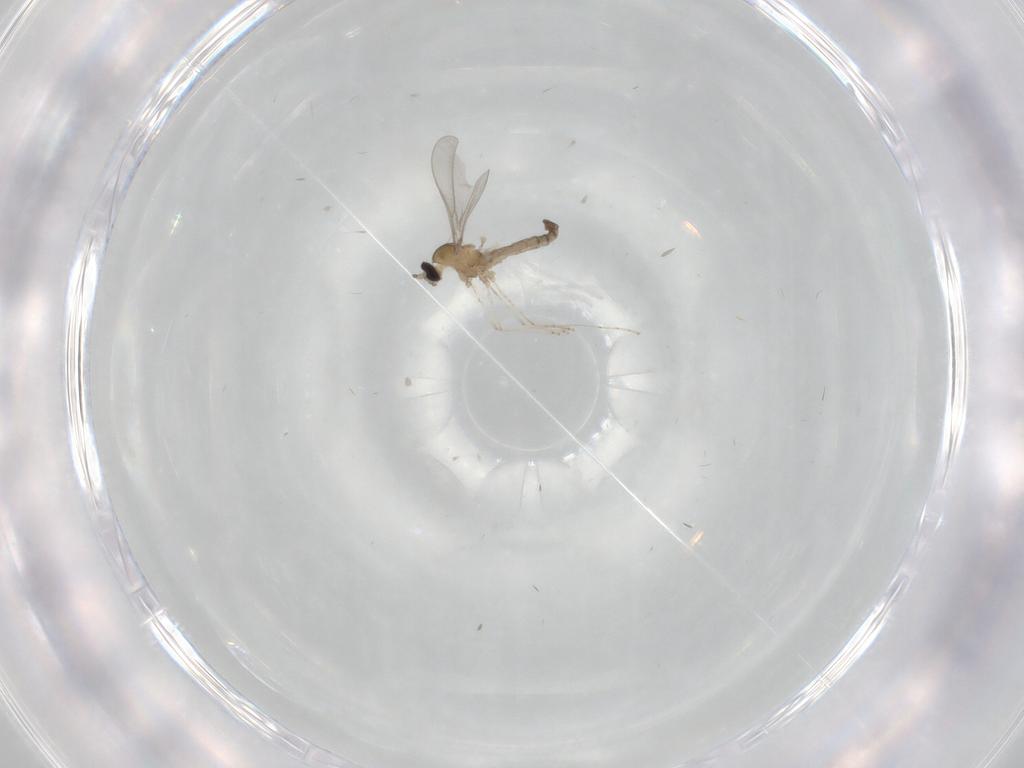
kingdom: Animalia
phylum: Arthropoda
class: Insecta
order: Diptera
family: Cecidomyiidae
